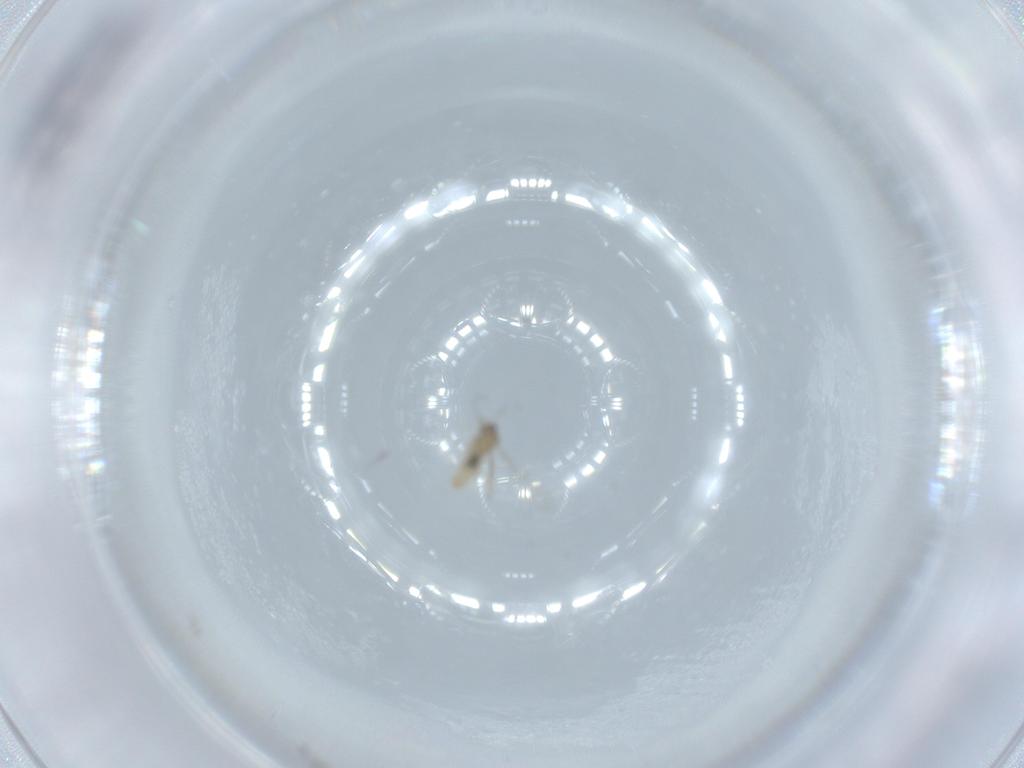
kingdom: Animalia
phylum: Arthropoda
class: Insecta
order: Diptera
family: Cecidomyiidae
